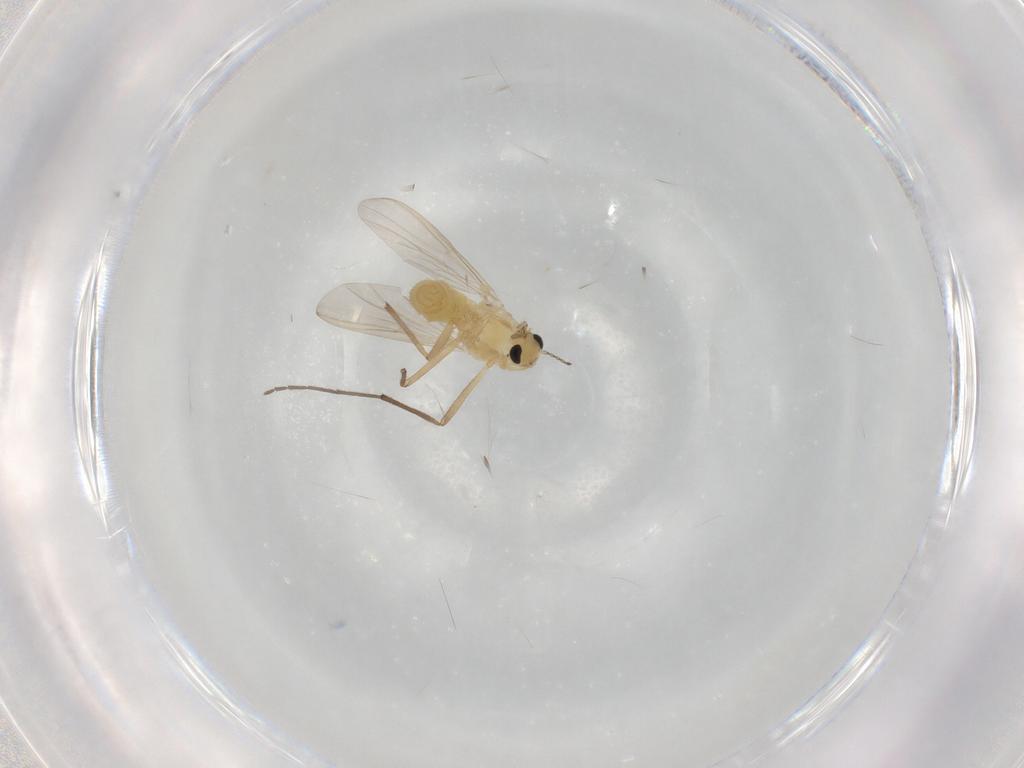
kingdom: Animalia
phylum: Arthropoda
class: Insecta
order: Diptera
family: Chironomidae
